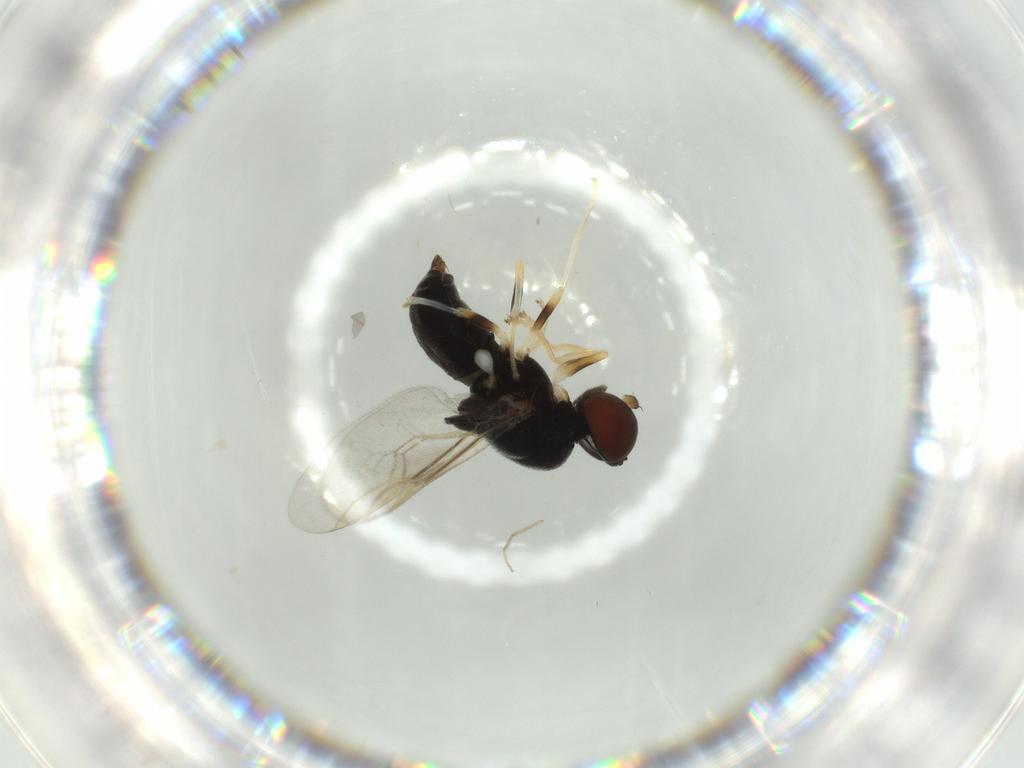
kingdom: Animalia
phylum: Arthropoda
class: Insecta
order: Diptera
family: Stratiomyidae
